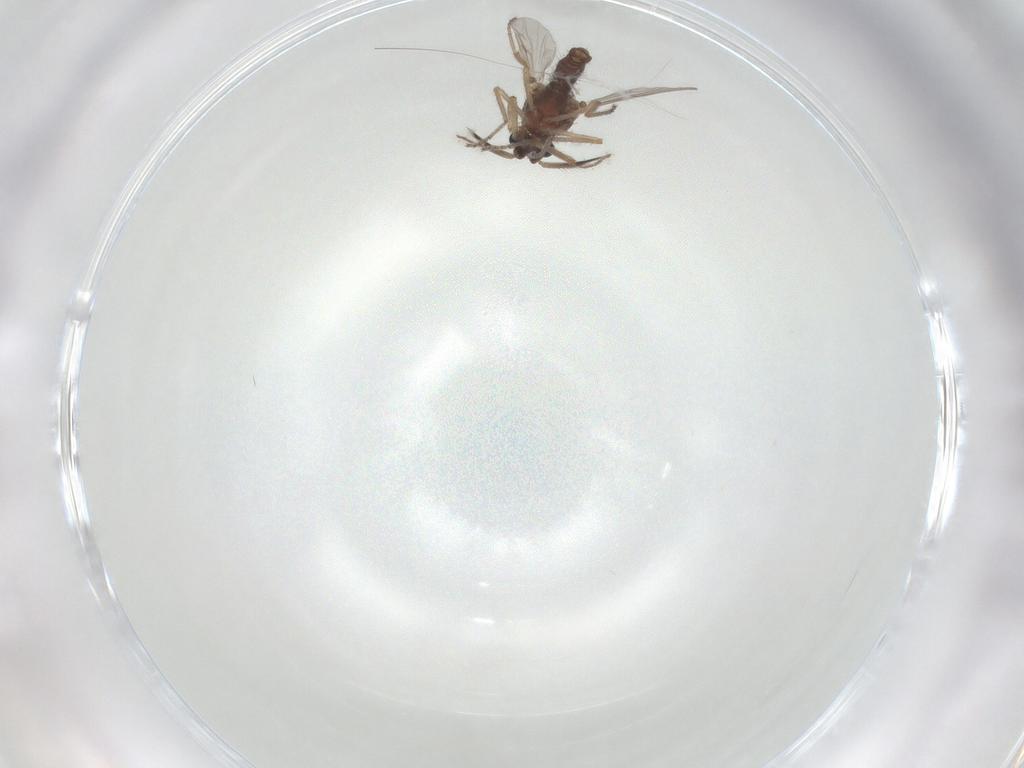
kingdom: Animalia
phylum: Arthropoda
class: Insecta
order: Diptera
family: Ceratopogonidae
